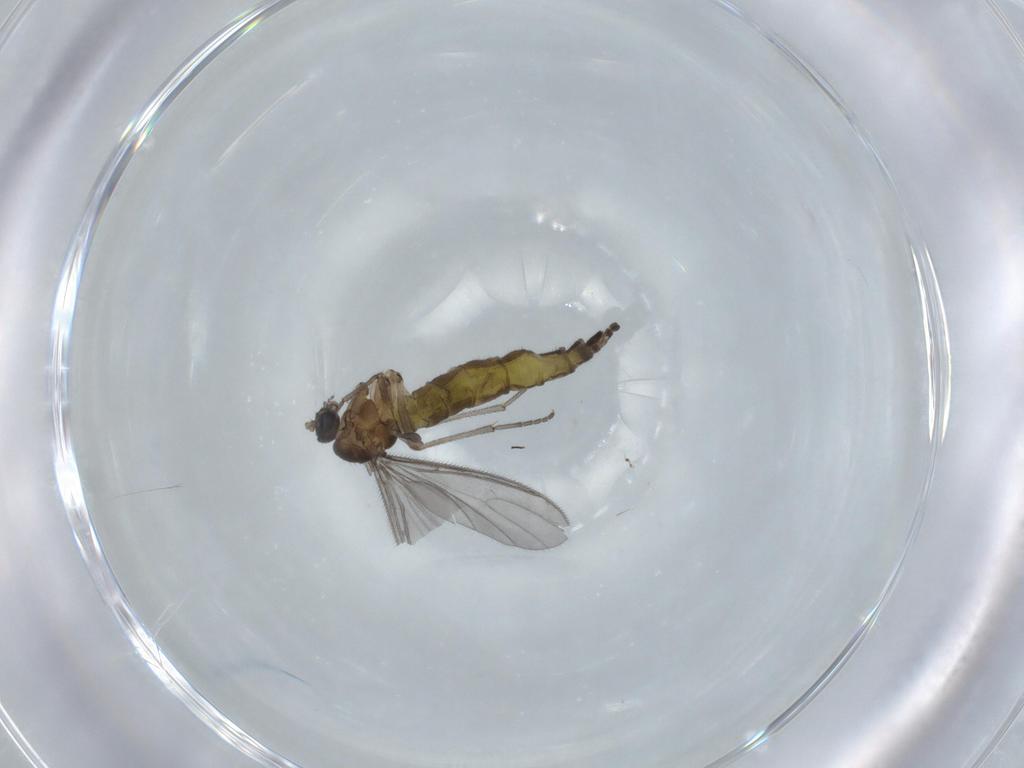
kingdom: Animalia
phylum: Arthropoda
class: Insecta
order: Diptera
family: Sciaridae
